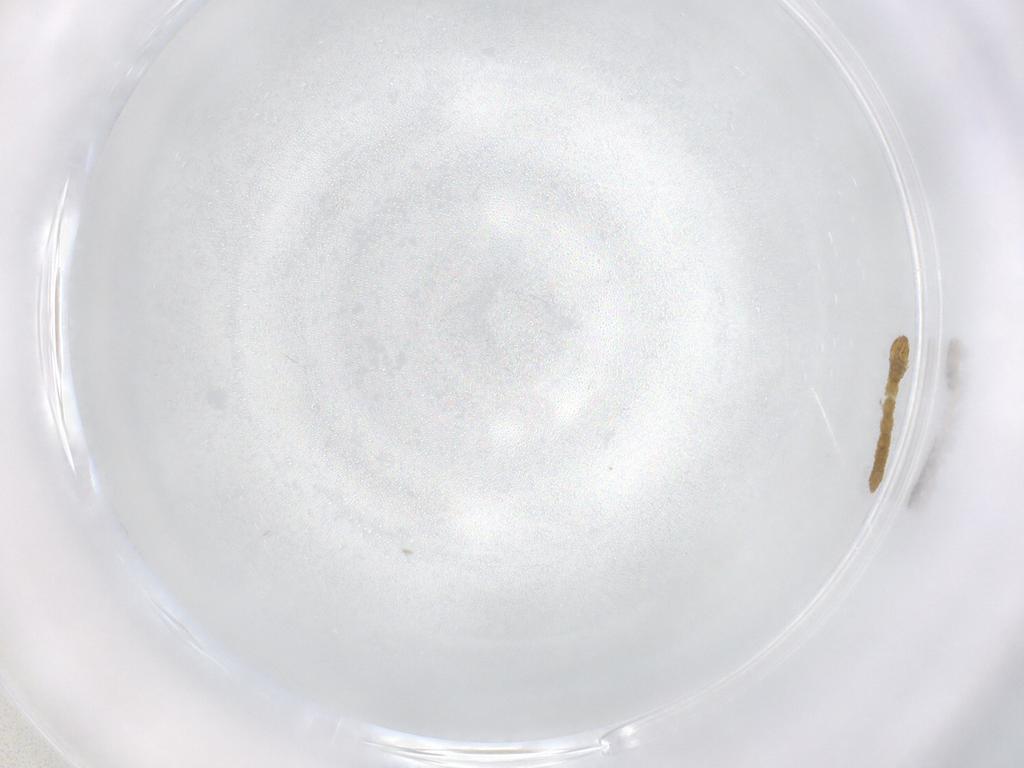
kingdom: Animalia
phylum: Arthropoda
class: Insecta
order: Lepidoptera
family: Geometridae
